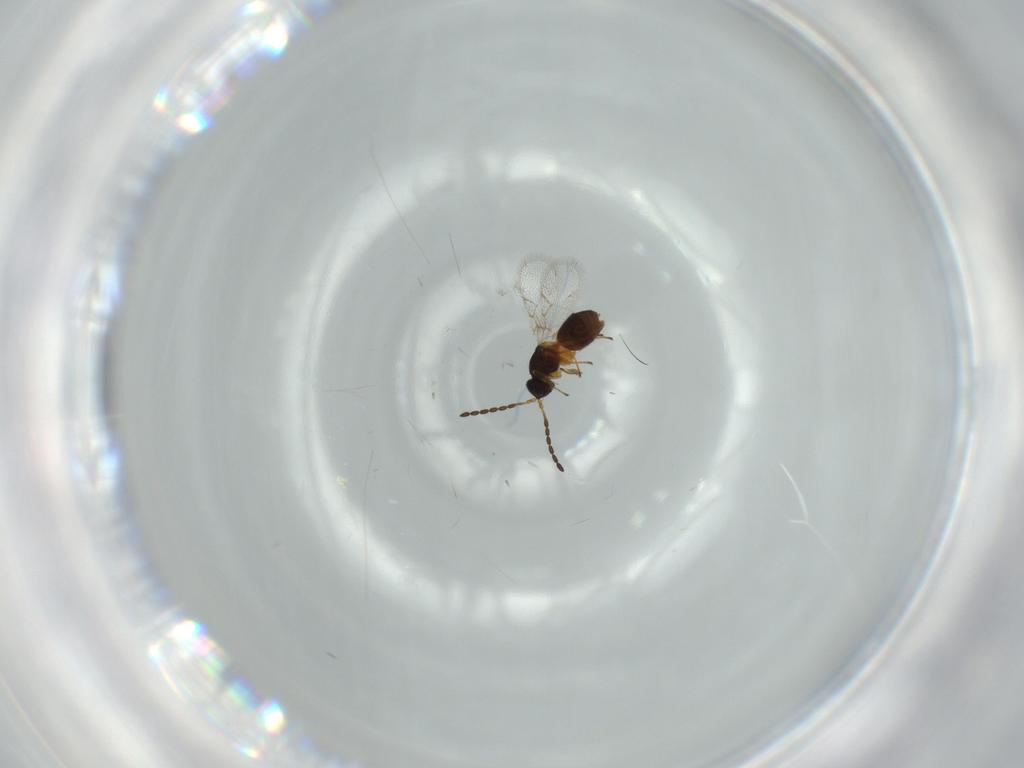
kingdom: Animalia
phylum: Arthropoda
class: Insecta
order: Hymenoptera
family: Figitidae
